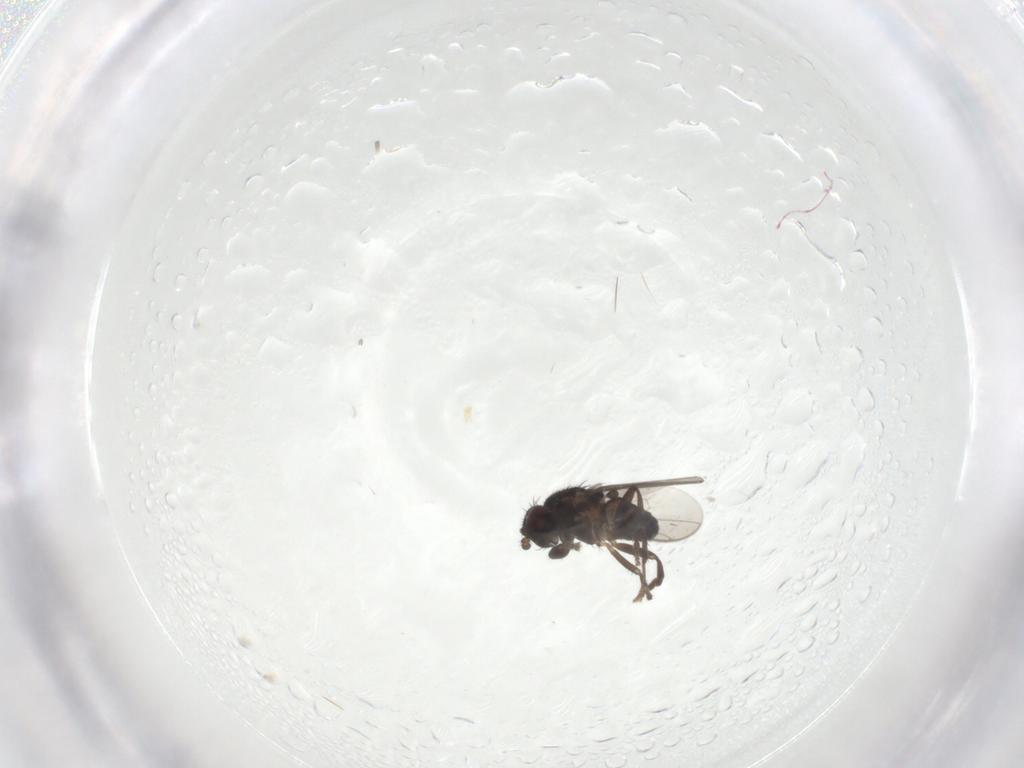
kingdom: Animalia
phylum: Arthropoda
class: Insecta
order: Diptera
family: Sphaeroceridae
